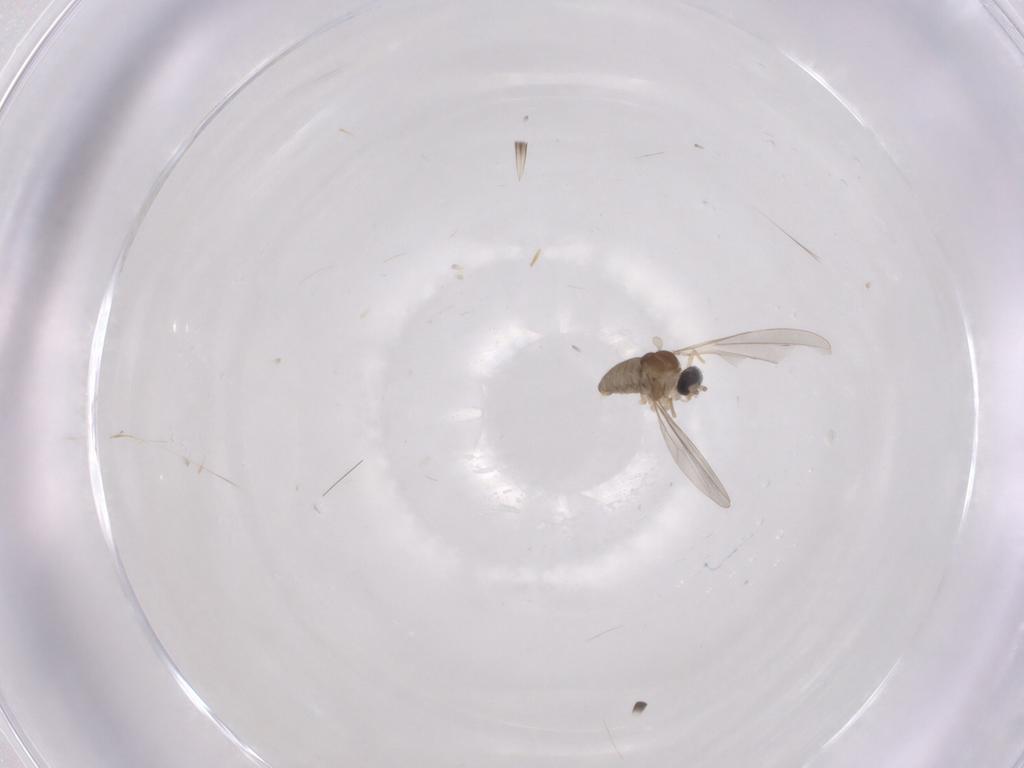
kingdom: Animalia
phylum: Arthropoda
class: Insecta
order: Diptera
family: Cecidomyiidae
